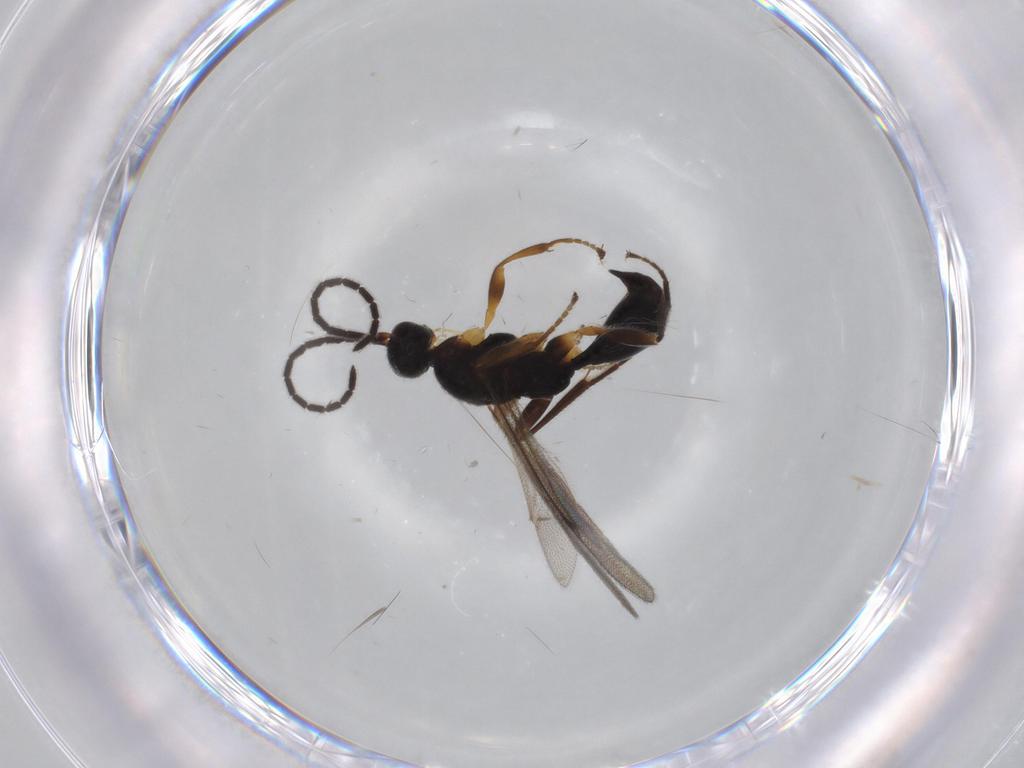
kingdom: Animalia
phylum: Arthropoda
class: Insecta
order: Hymenoptera
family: Proctotrupidae
